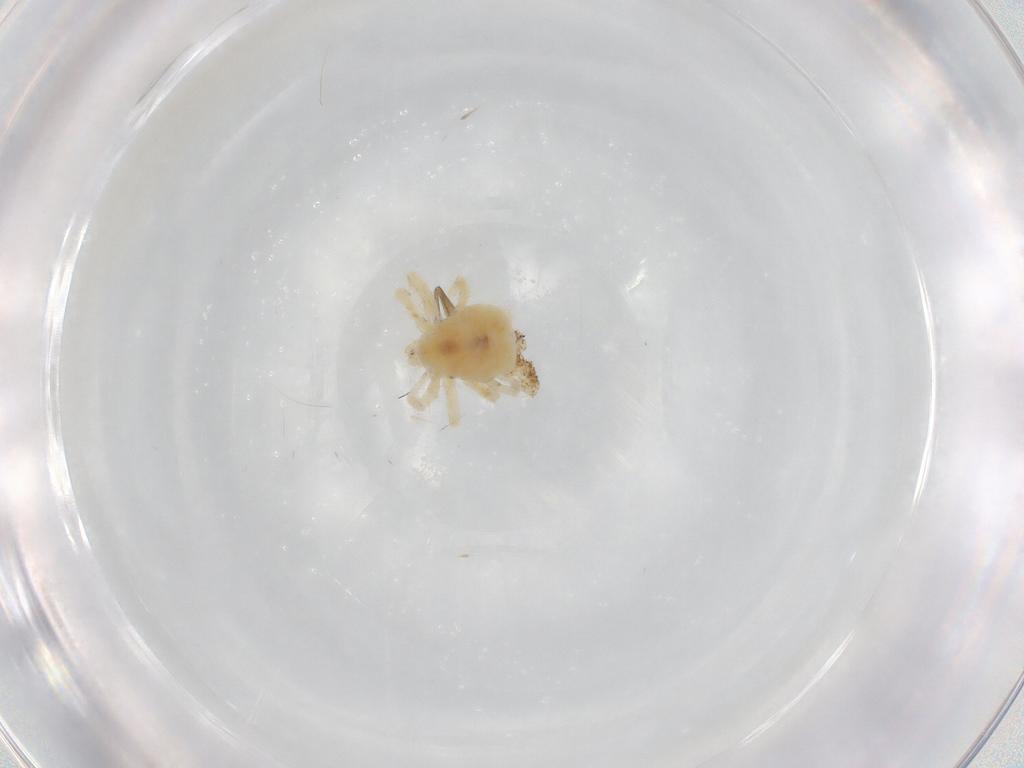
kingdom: Animalia
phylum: Arthropoda
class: Arachnida
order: Trombidiformes
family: Anystidae
